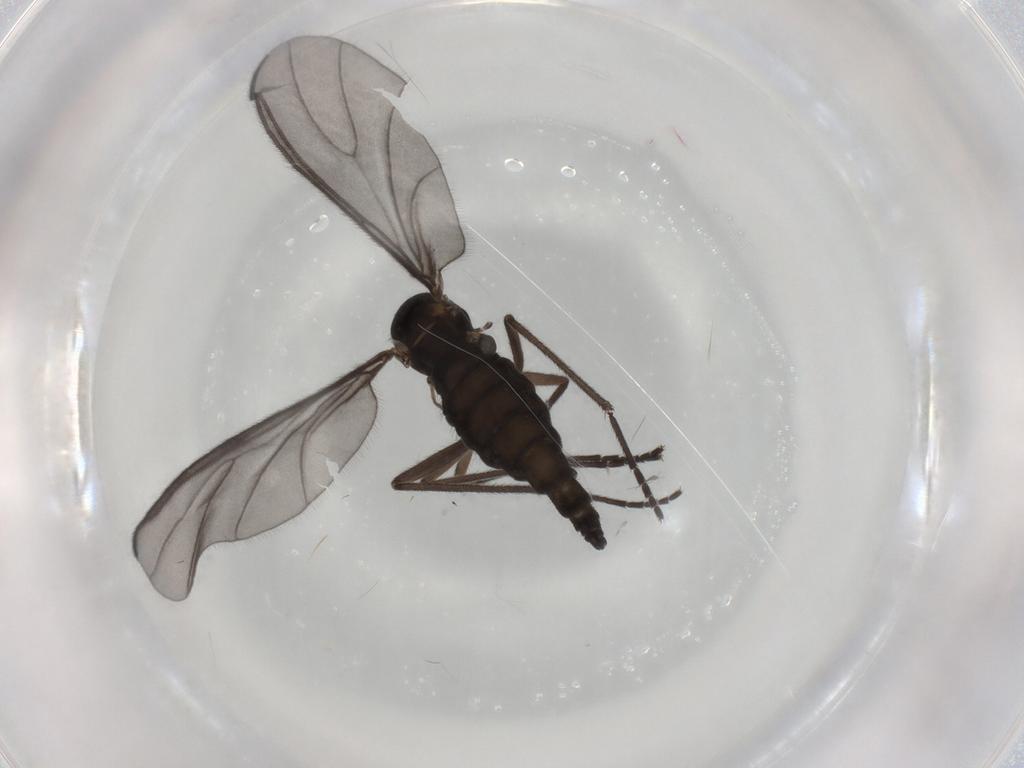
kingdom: Animalia
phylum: Arthropoda
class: Insecta
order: Diptera
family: Sciaridae
